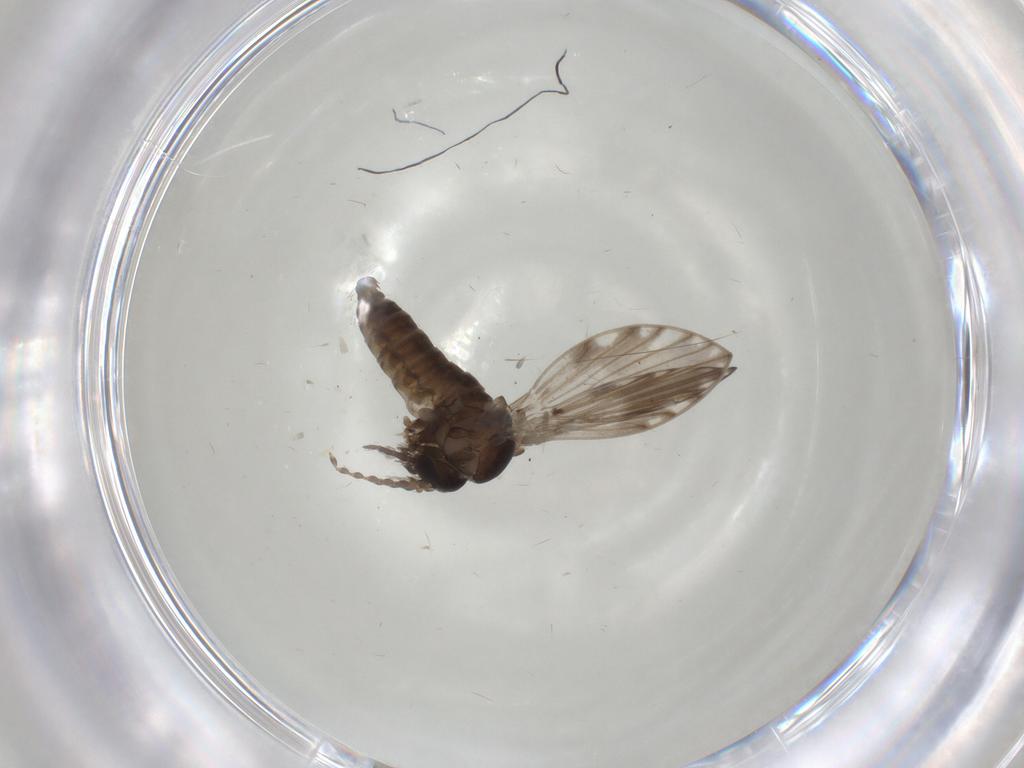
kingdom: Animalia
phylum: Arthropoda
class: Insecta
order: Diptera
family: Psychodidae
